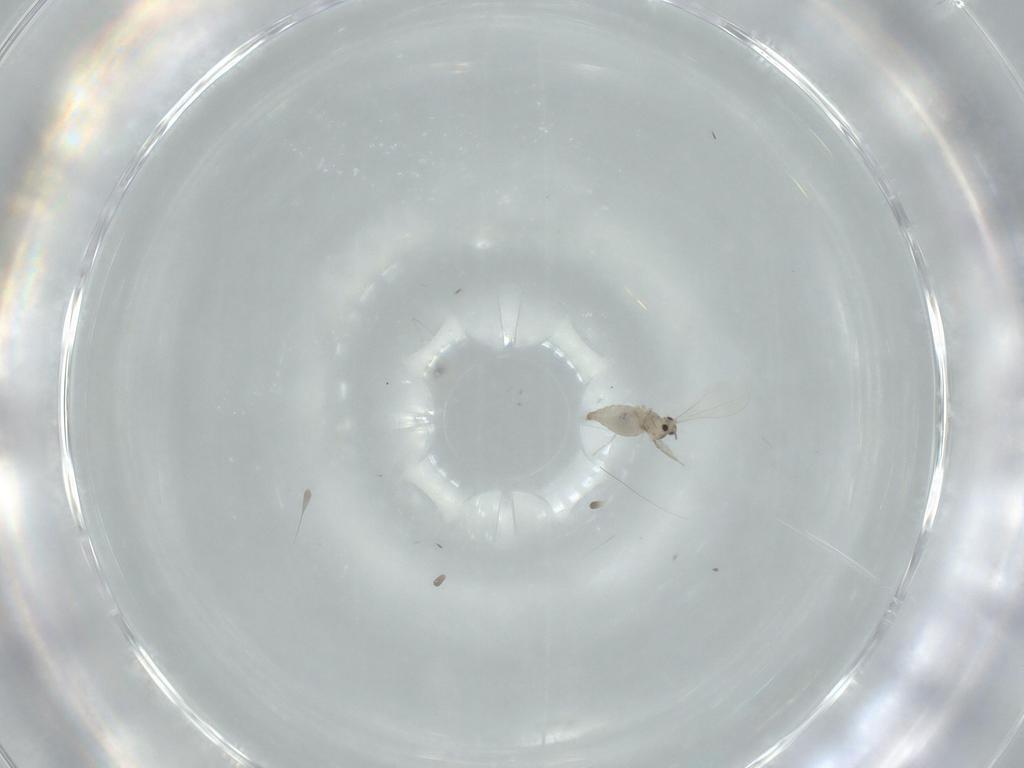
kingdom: Animalia
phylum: Arthropoda
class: Insecta
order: Diptera
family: Cecidomyiidae
